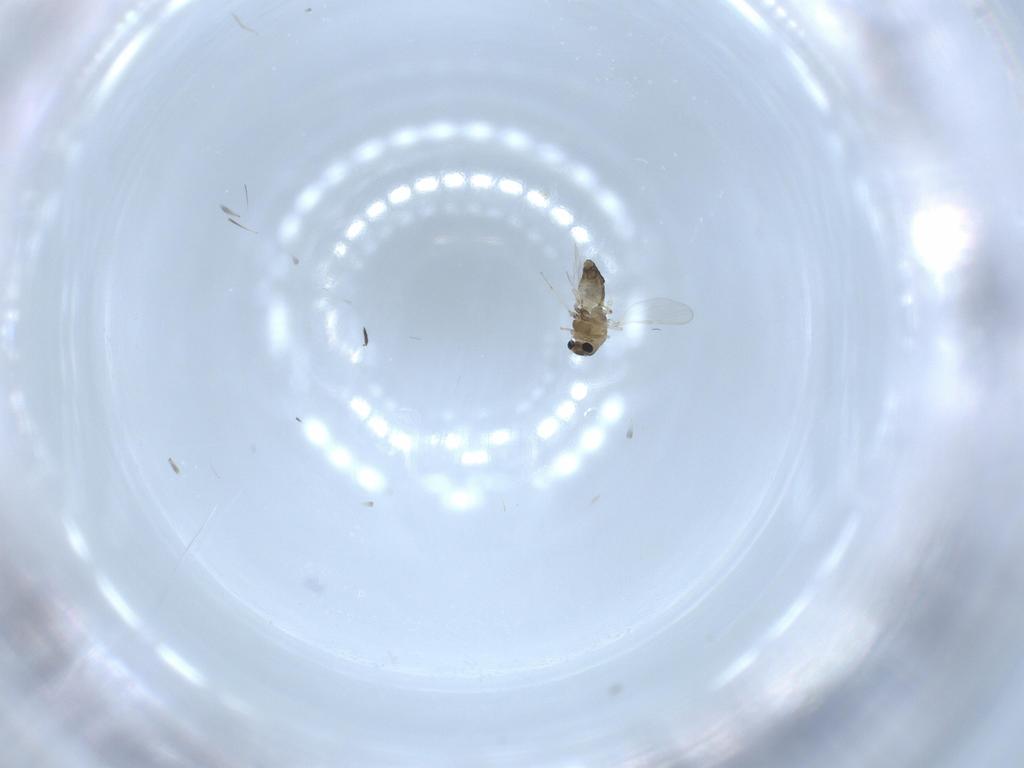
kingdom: Animalia
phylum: Arthropoda
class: Insecta
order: Diptera
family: Chironomidae
